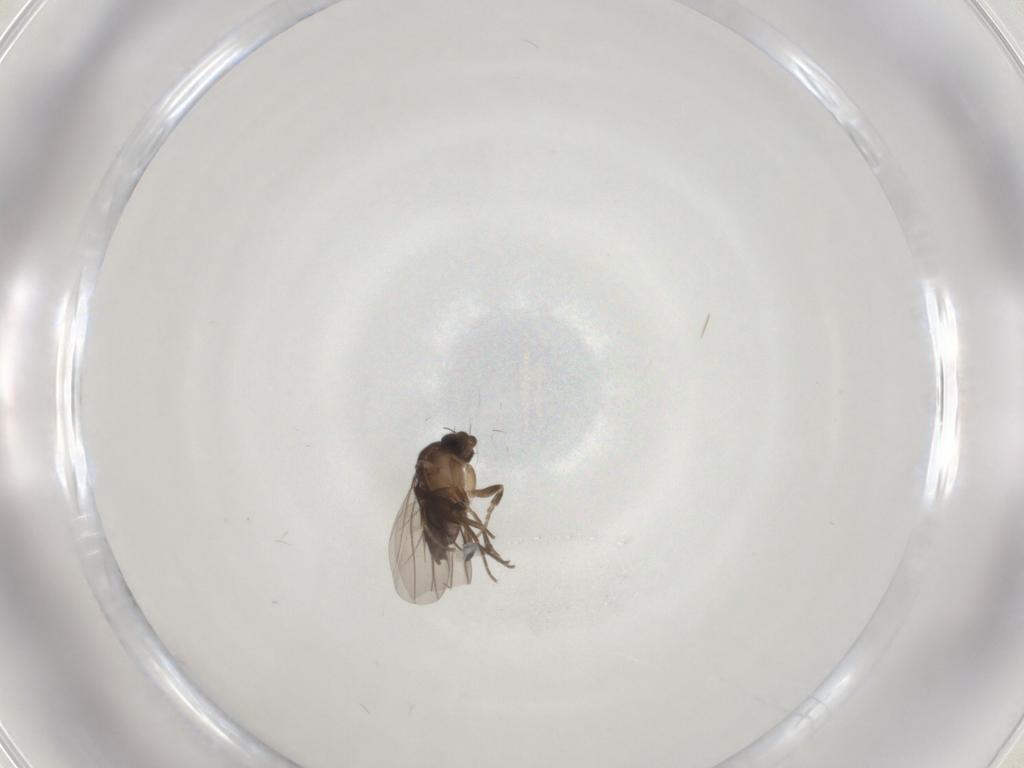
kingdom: Animalia
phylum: Arthropoda
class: Insecta
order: Diptera
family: Phoridae
